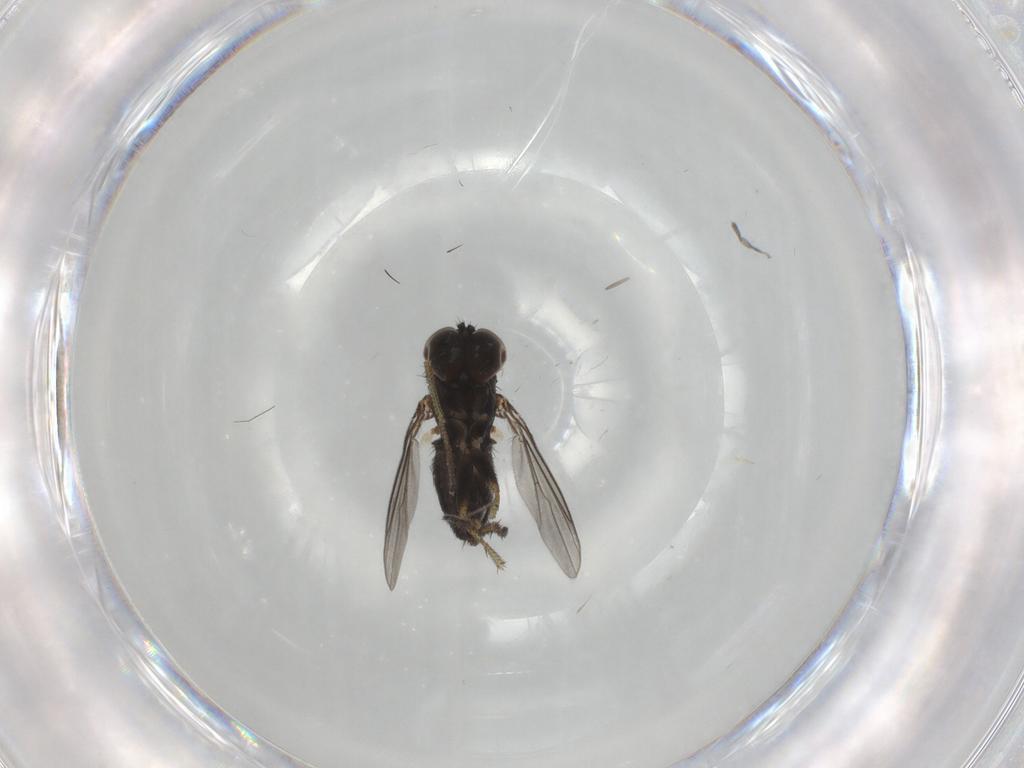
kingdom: Animalia
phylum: Arthropoda
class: Insecta
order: Diptera
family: Dolichopodidae
